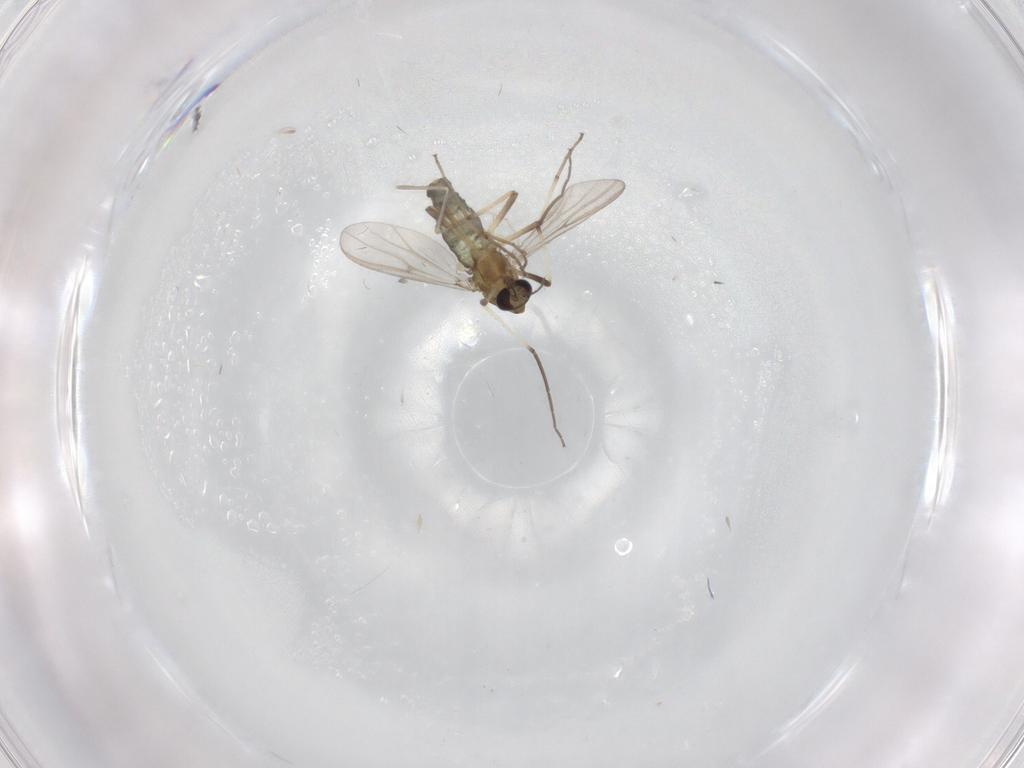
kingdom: Animalia
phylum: Arthropoda
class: Insecta
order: Diptera
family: Chironomidae
